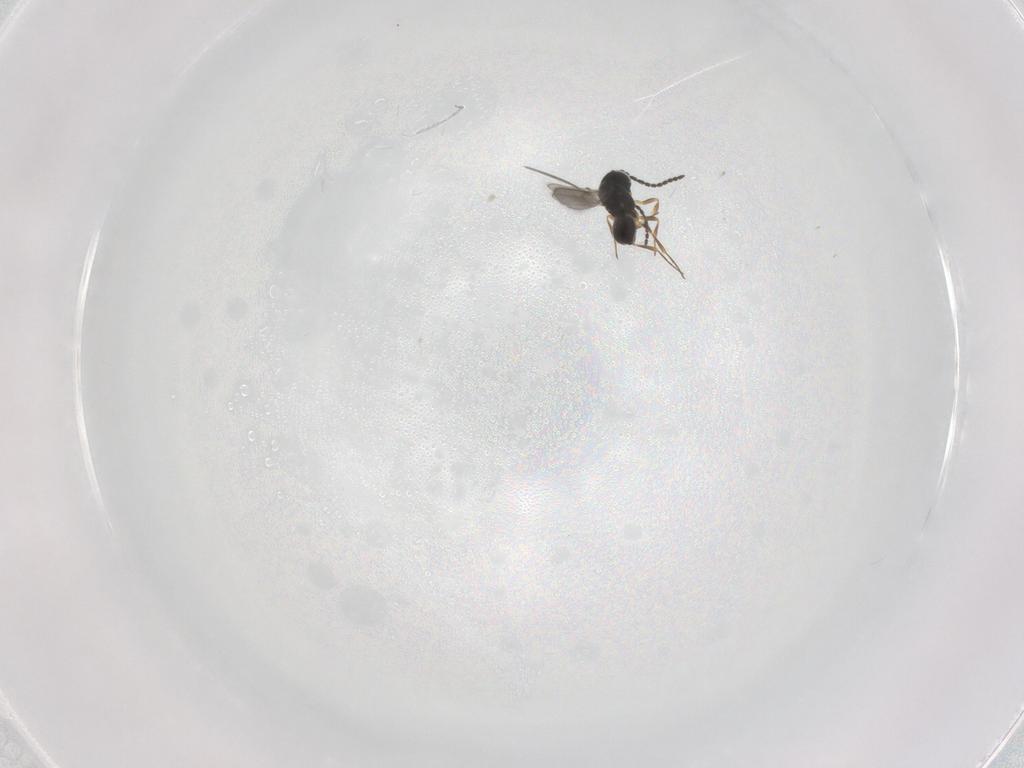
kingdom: Animalia
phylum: Arthropoda
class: Insecta
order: Hymenoptera
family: Scelionidae
